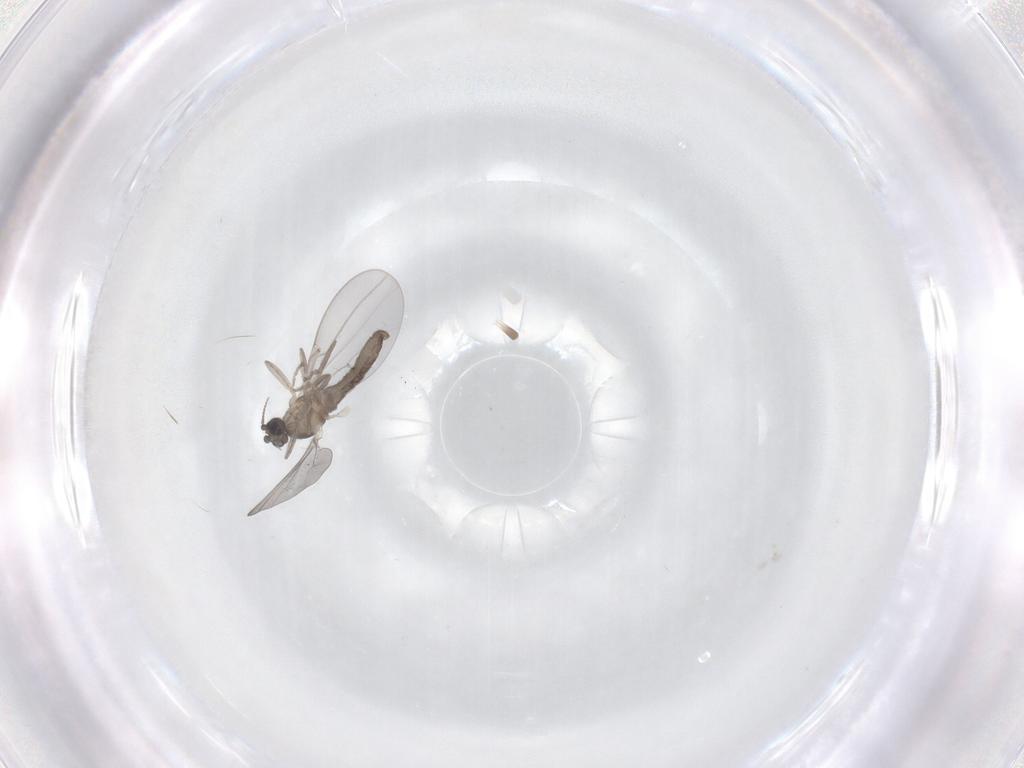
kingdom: Animalia
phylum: Arthropoda
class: Insecta
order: Diptera
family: Cecidomyiidae
